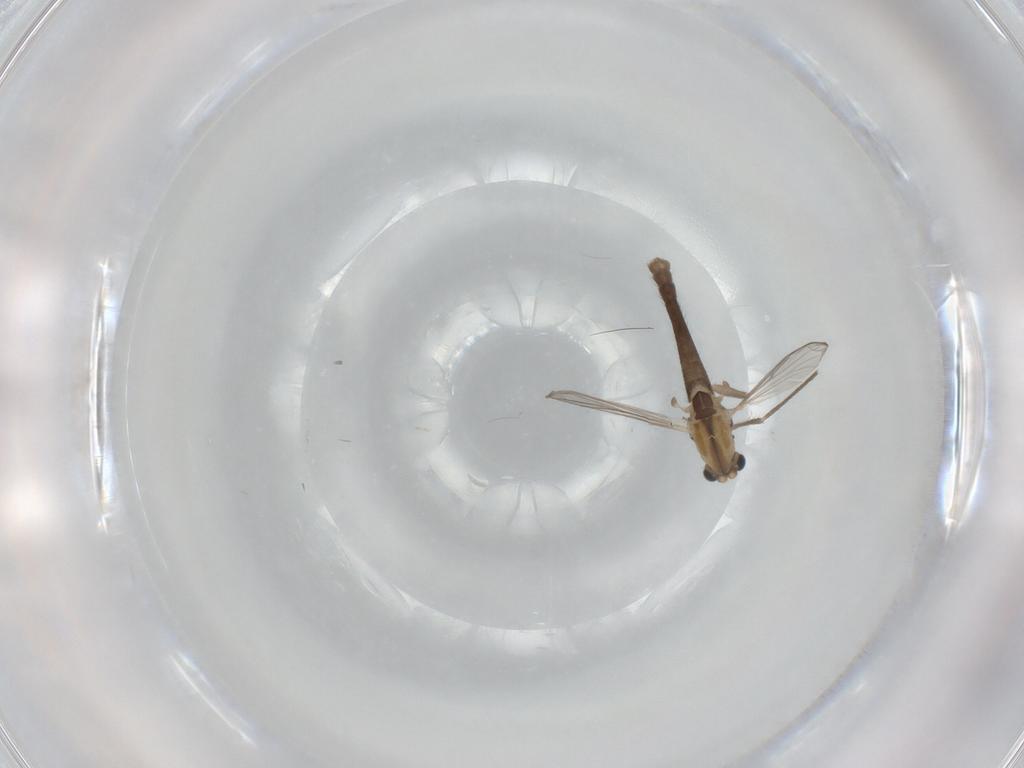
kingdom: Animalia
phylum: Arthropoda
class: Insecta
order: Diptera
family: Chironomidae
